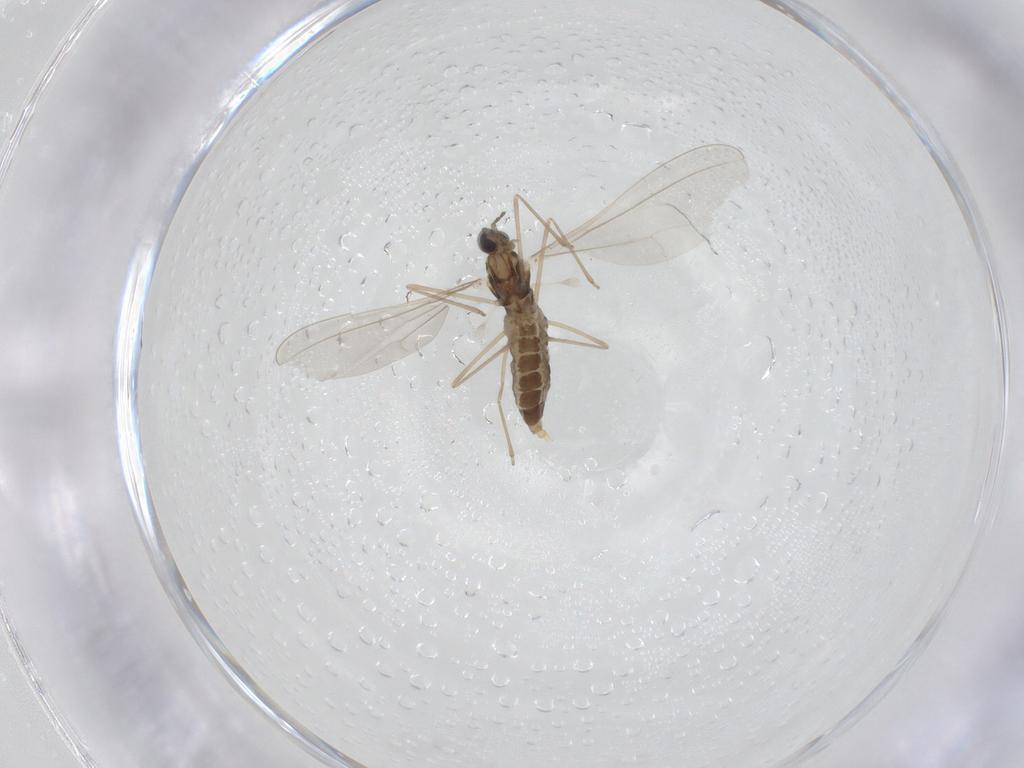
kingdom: Animalia
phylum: Arthropoda
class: Insecta
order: Diptera
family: Cecidomyiidae
